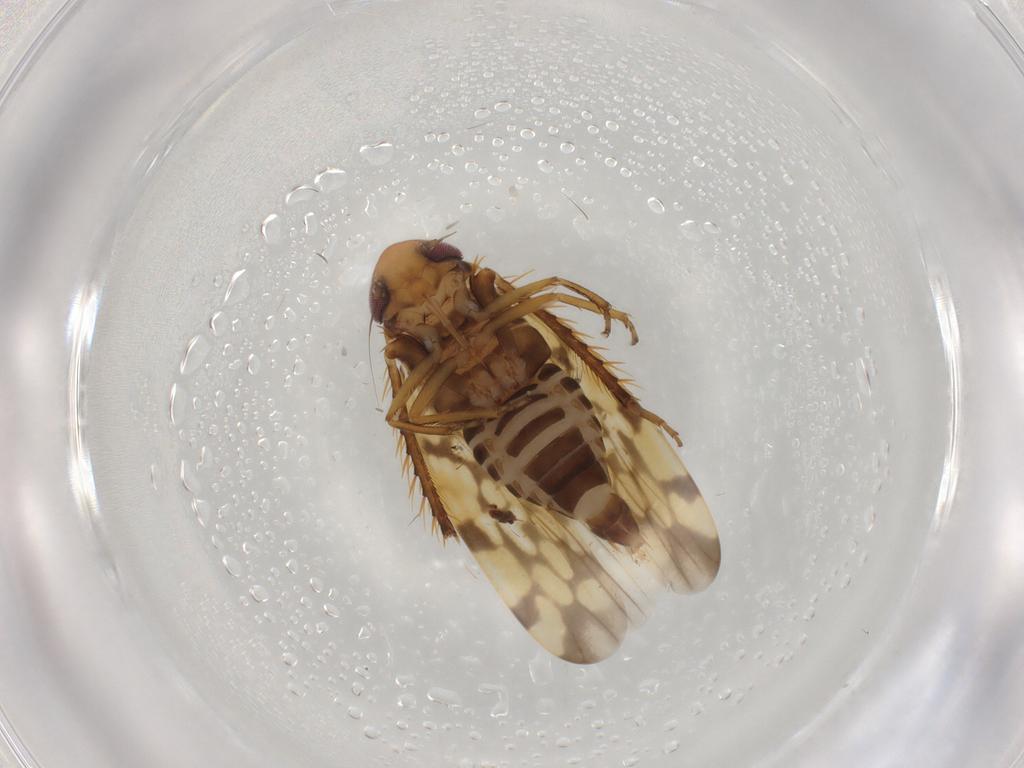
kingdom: Animalia
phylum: Arthropoda
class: Insecta
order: Hemiptera
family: Cicadellidae
